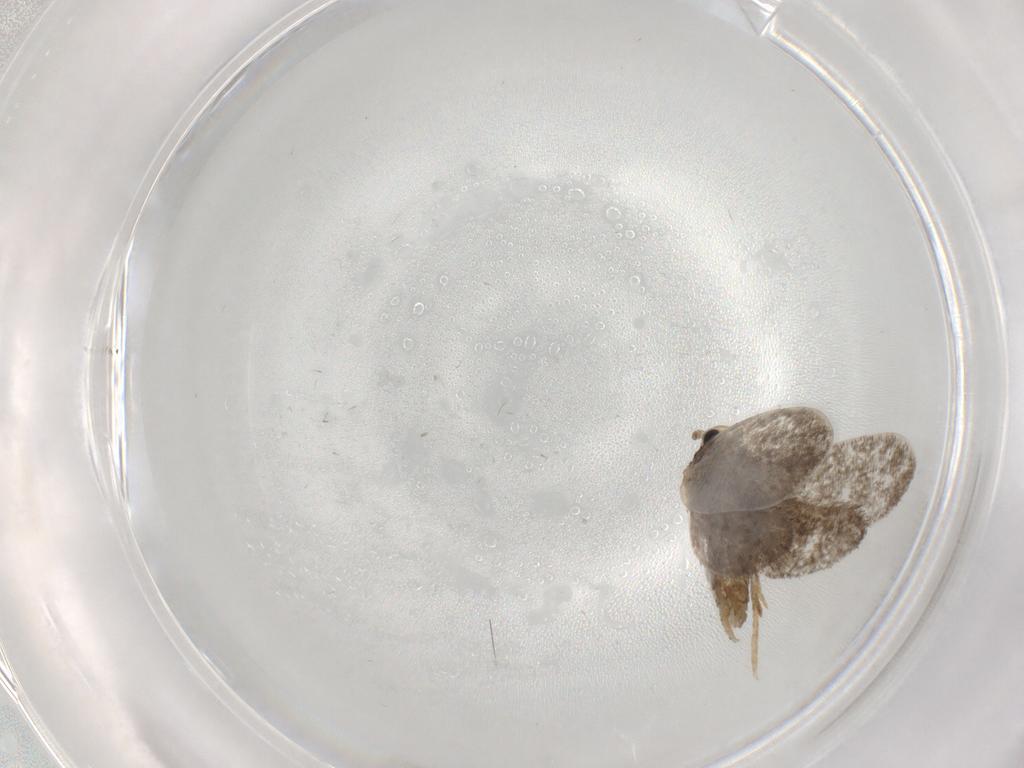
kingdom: Animalia
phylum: Arthropoda
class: Insecta
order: Lepidoptera
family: Psychidae
